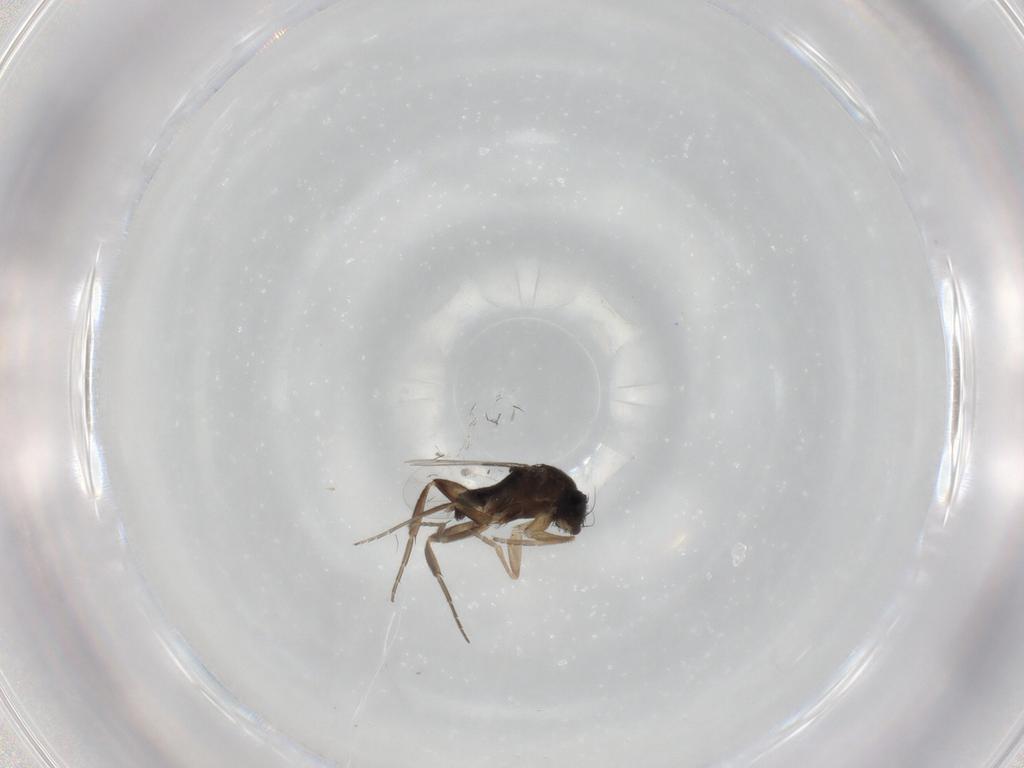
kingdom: Animalia
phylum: Arthropoda
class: Insecta
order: Diptera
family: Phoridae
